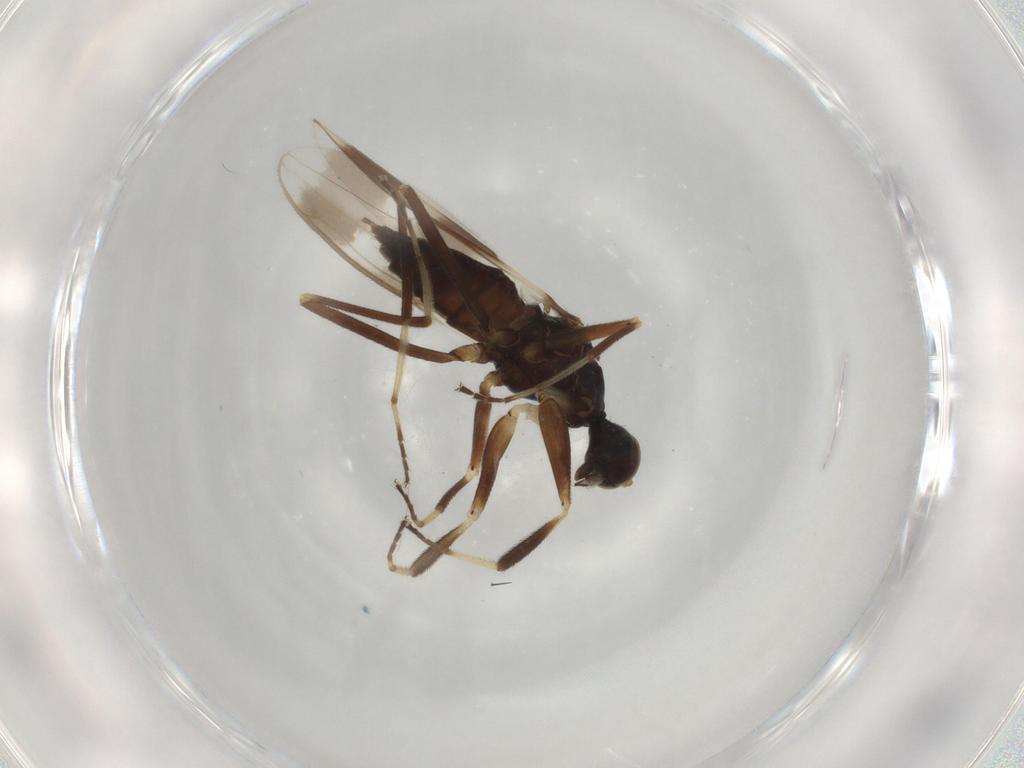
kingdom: Animalia
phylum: Arthropoda
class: Insecta
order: Diptera
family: Hybotidae
